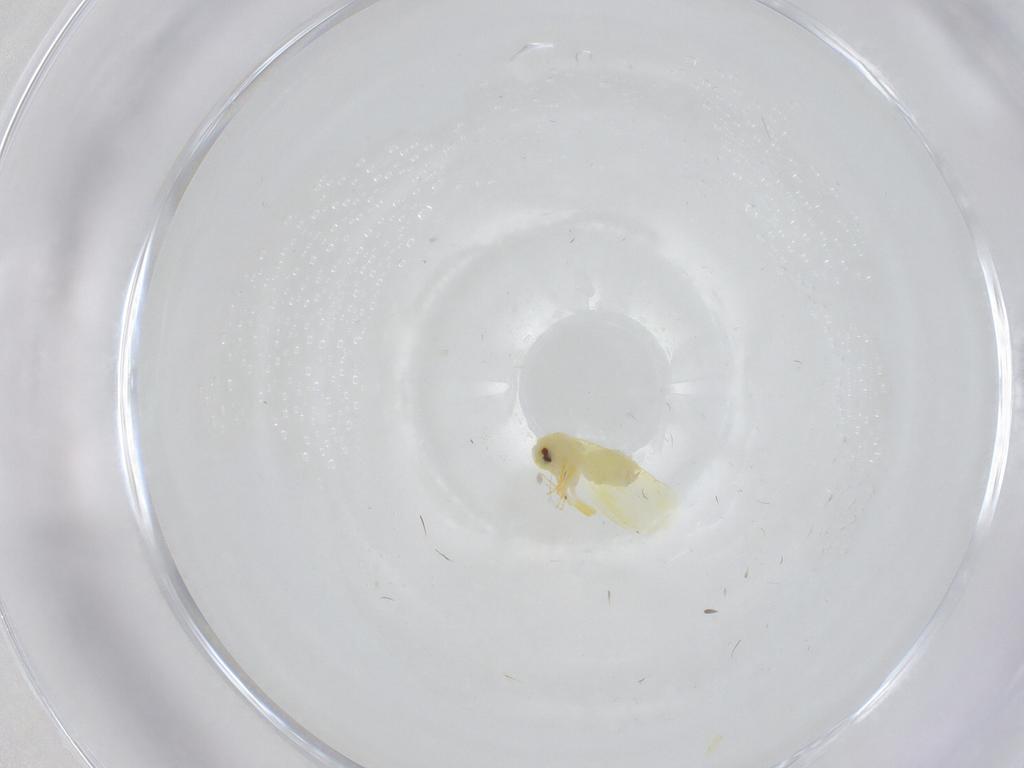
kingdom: Animalia
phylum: Arthropoda
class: Insecta
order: Hemiptera
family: Aleyrodidae
